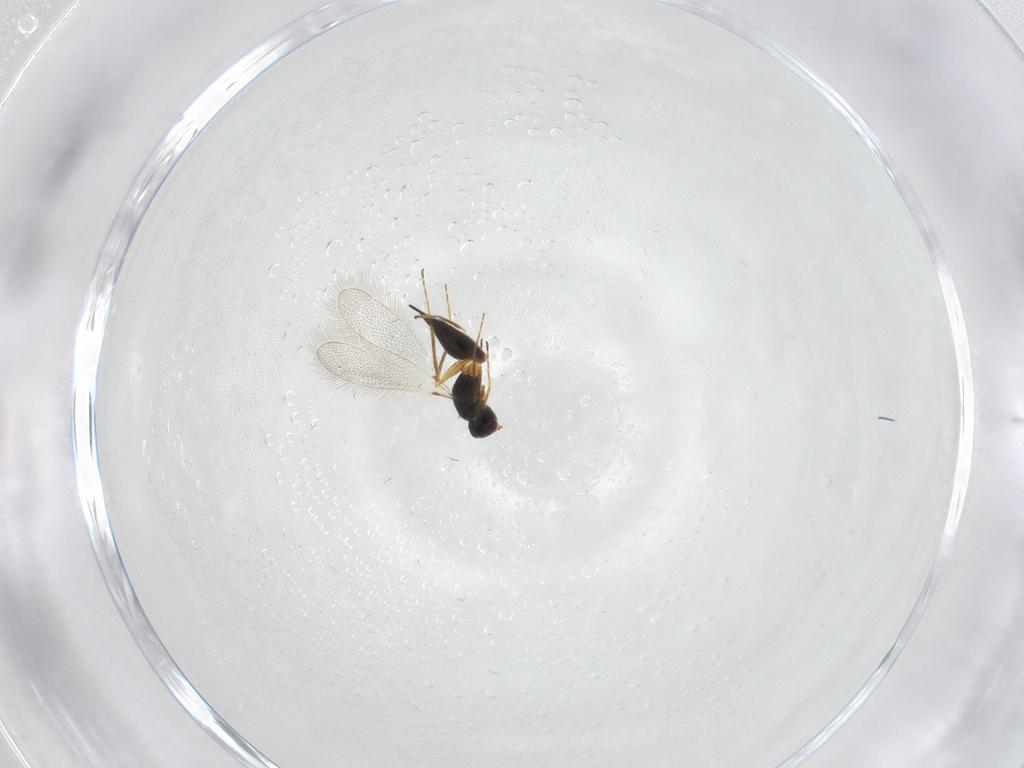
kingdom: Animalia
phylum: Arthropoda
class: Insecta
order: Hymenoptera
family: Mymaridae
